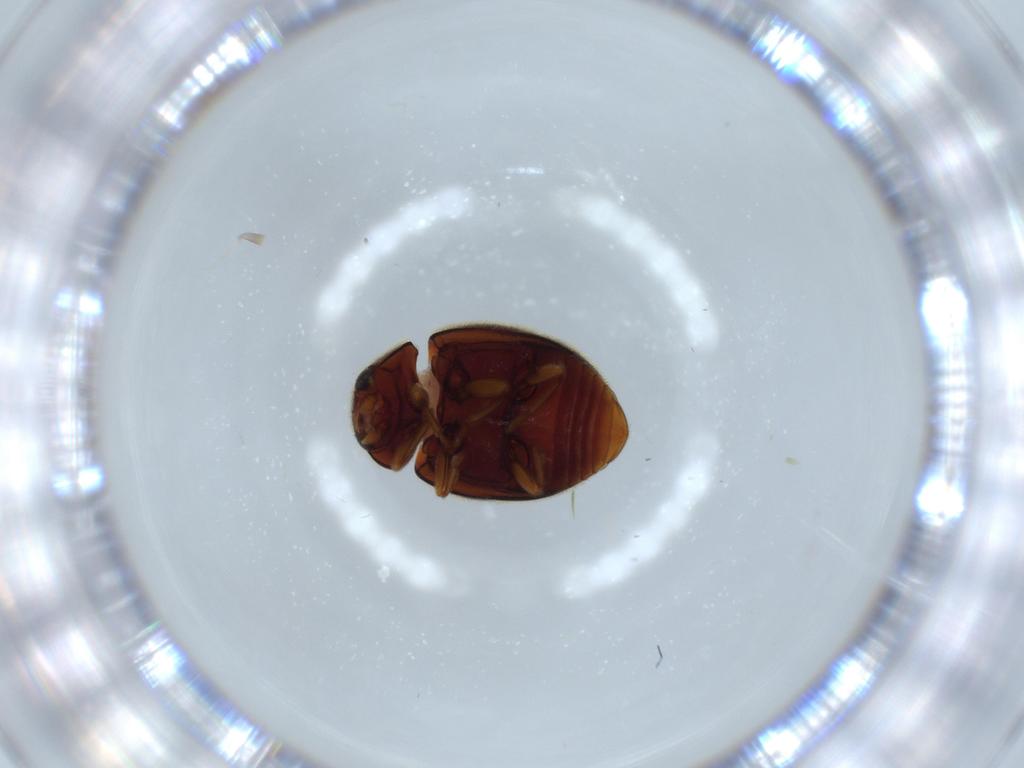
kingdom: Animalia
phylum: Arthropoda
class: Insecta
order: Coleoptera
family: Coccinellidae
